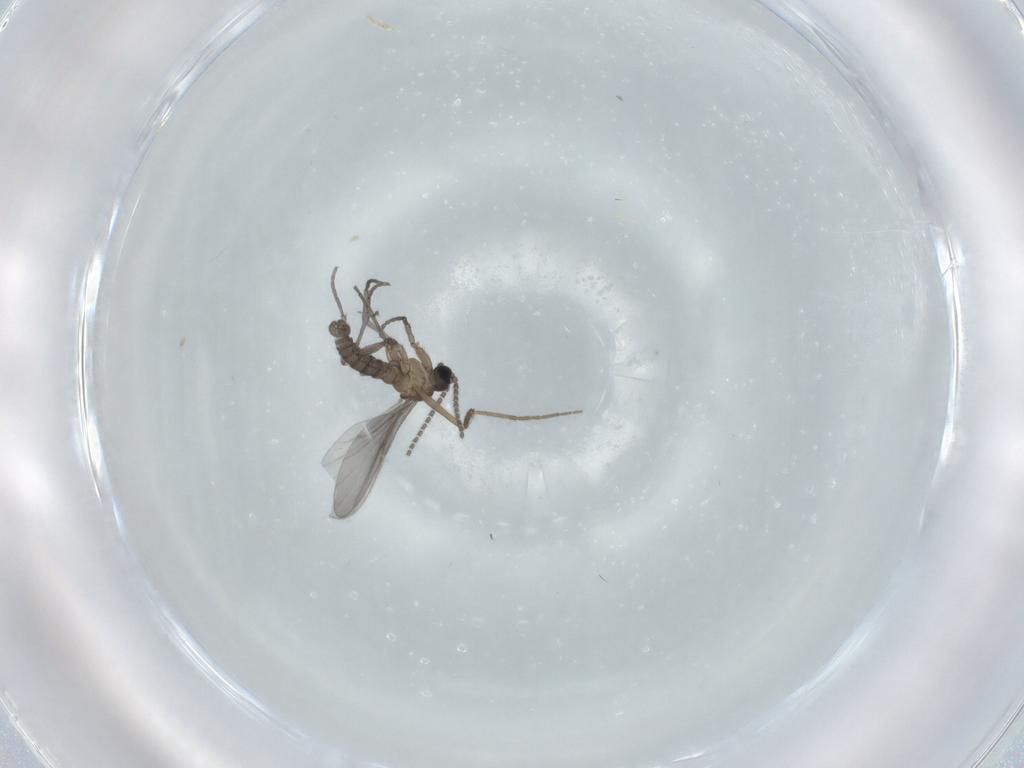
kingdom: Animalia
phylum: Arthropoda
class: Insecta
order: Diptera
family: Sciaridae
